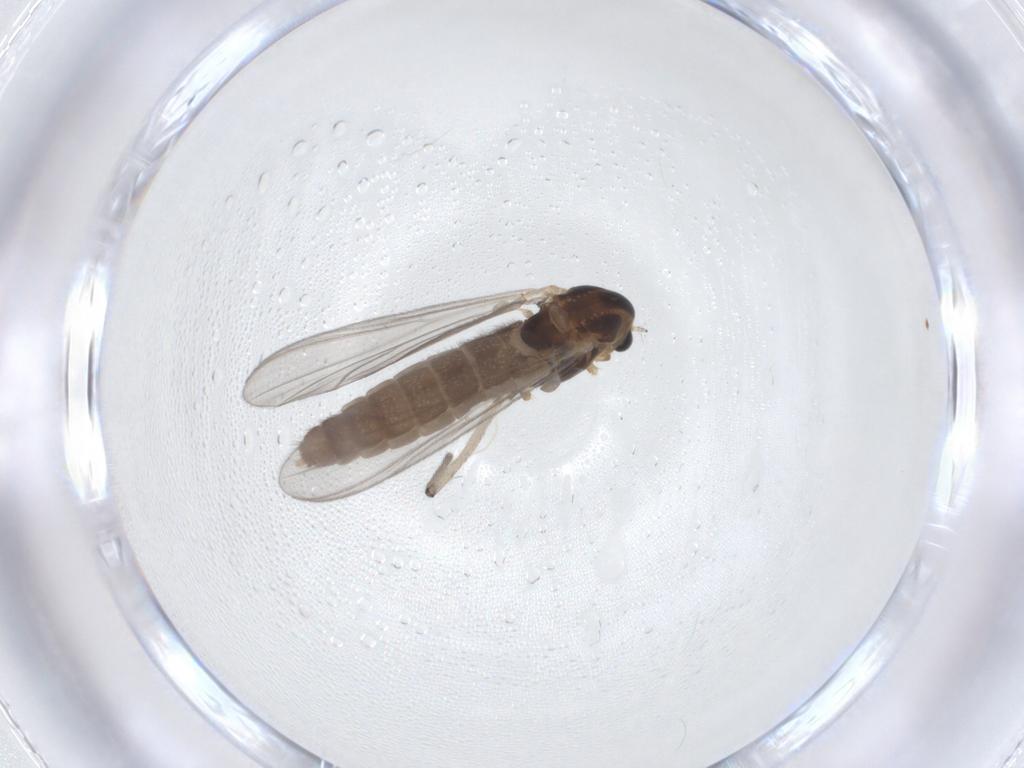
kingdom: Animalia
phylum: Arthropoda
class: Insecta
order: Diptera
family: Chironomidae
